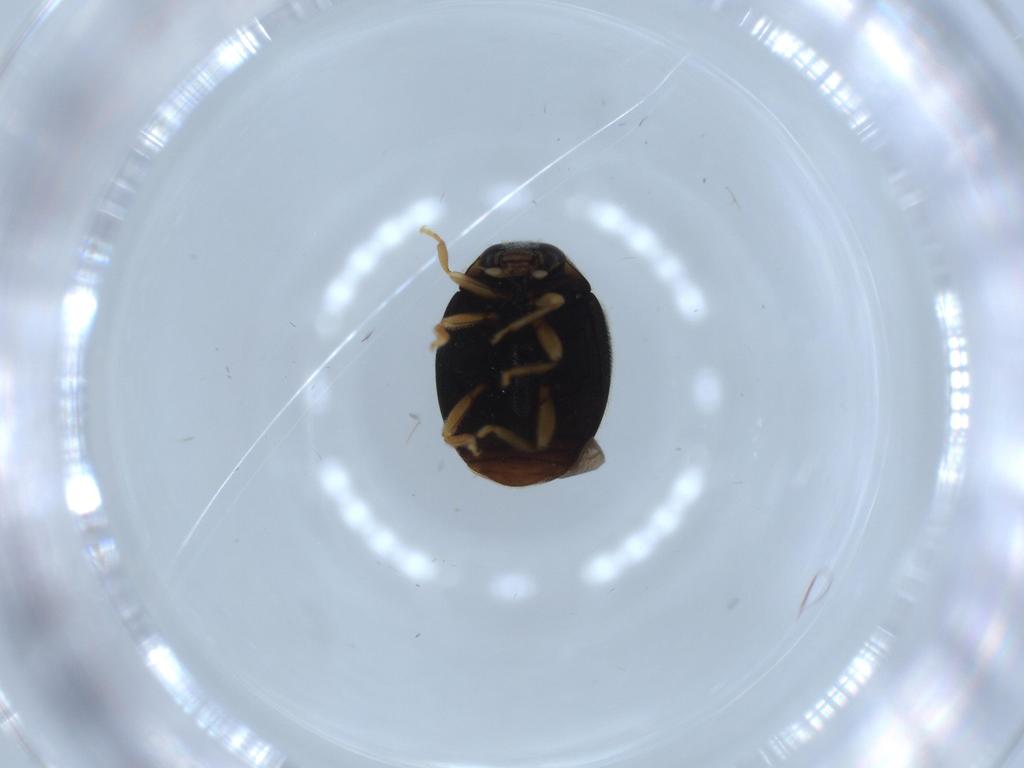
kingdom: Animalia
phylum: Arthropoda
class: Insecta
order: Coleoptera
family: Coccinellidae
